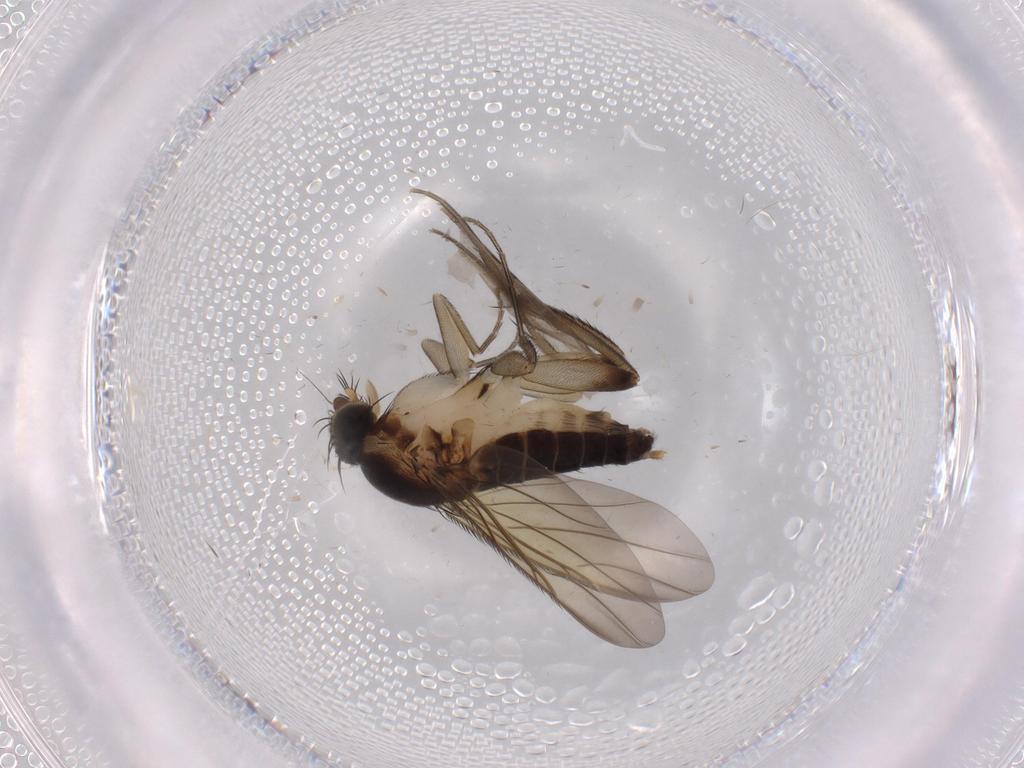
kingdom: Animalia
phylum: Arthropoda
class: Insecta
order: Diptera
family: Phoridae
